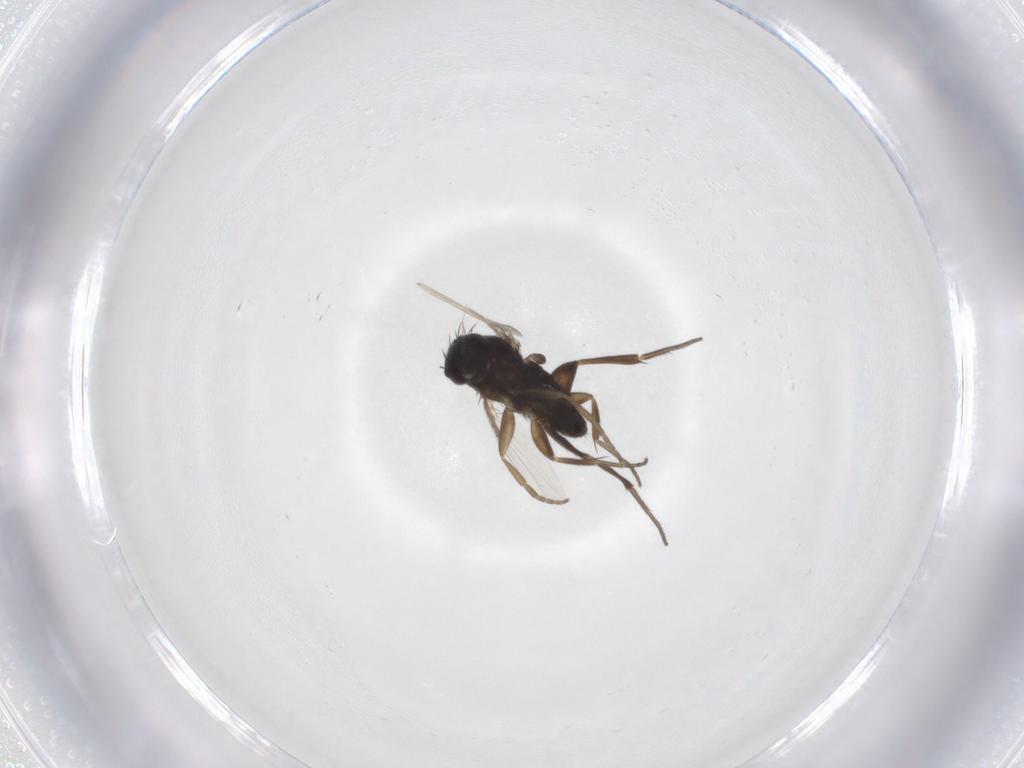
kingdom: Animalia
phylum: Arthropoda
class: Insecta
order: Diptera
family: Phoridae
